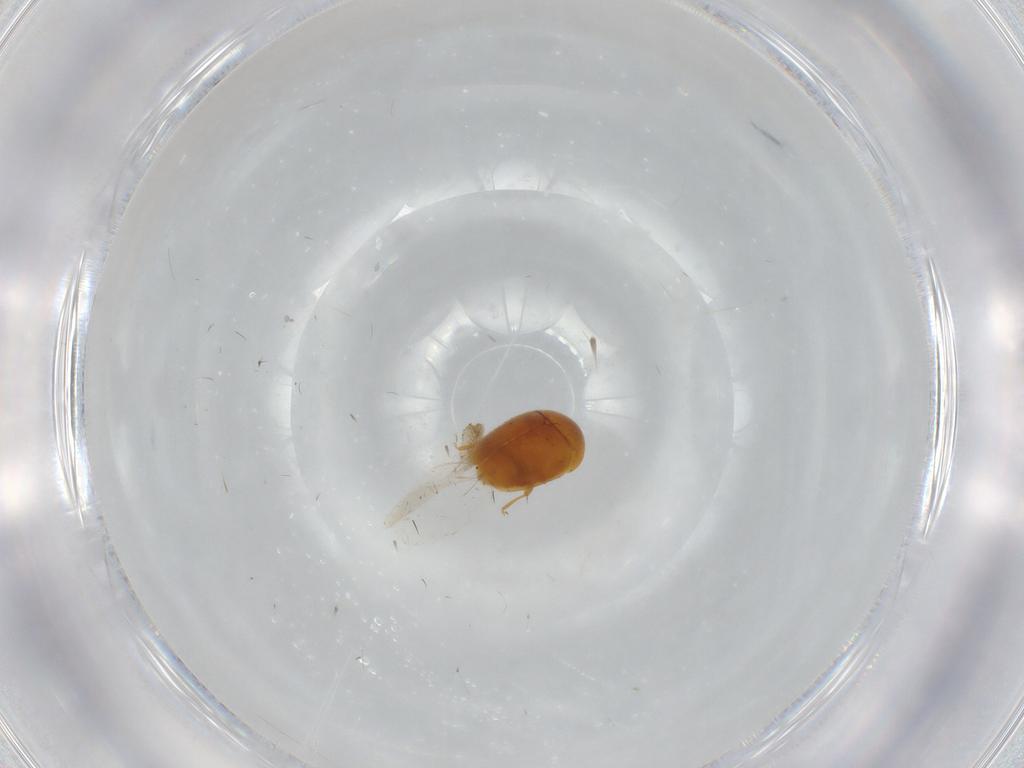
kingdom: Animalia
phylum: Arthropoda
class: Insecta
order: Coleoptera
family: Corylophidae
